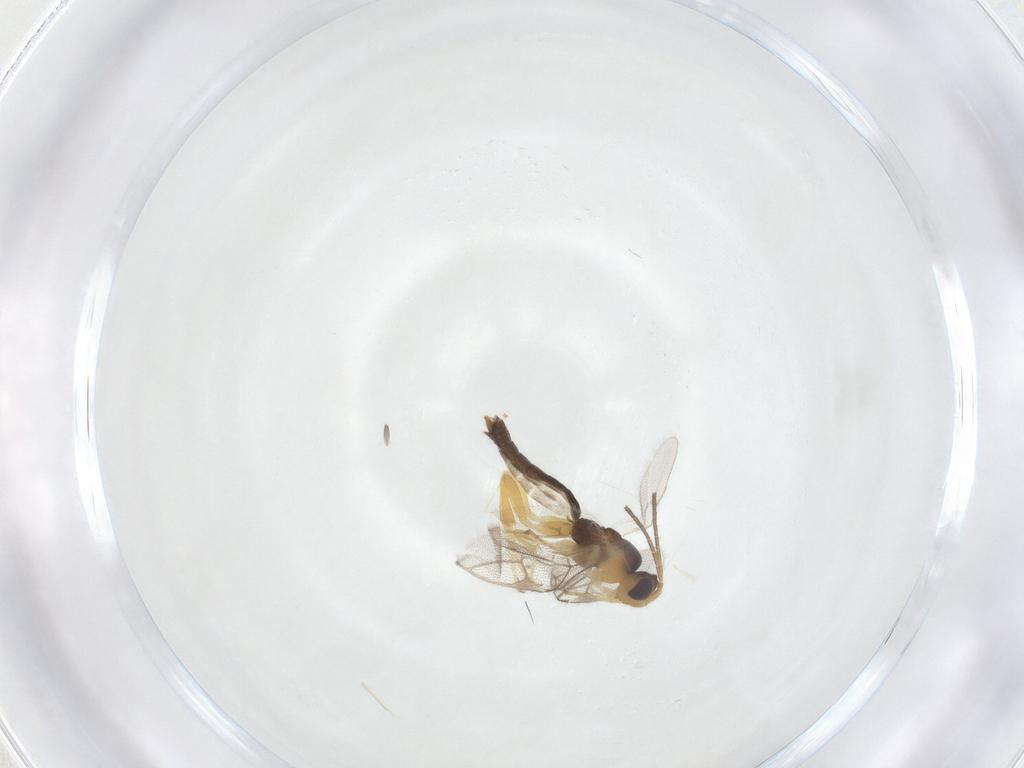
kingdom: Animalia
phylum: Arthropoda
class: Insecta
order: Hymenoptera
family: Ichneumonidae
